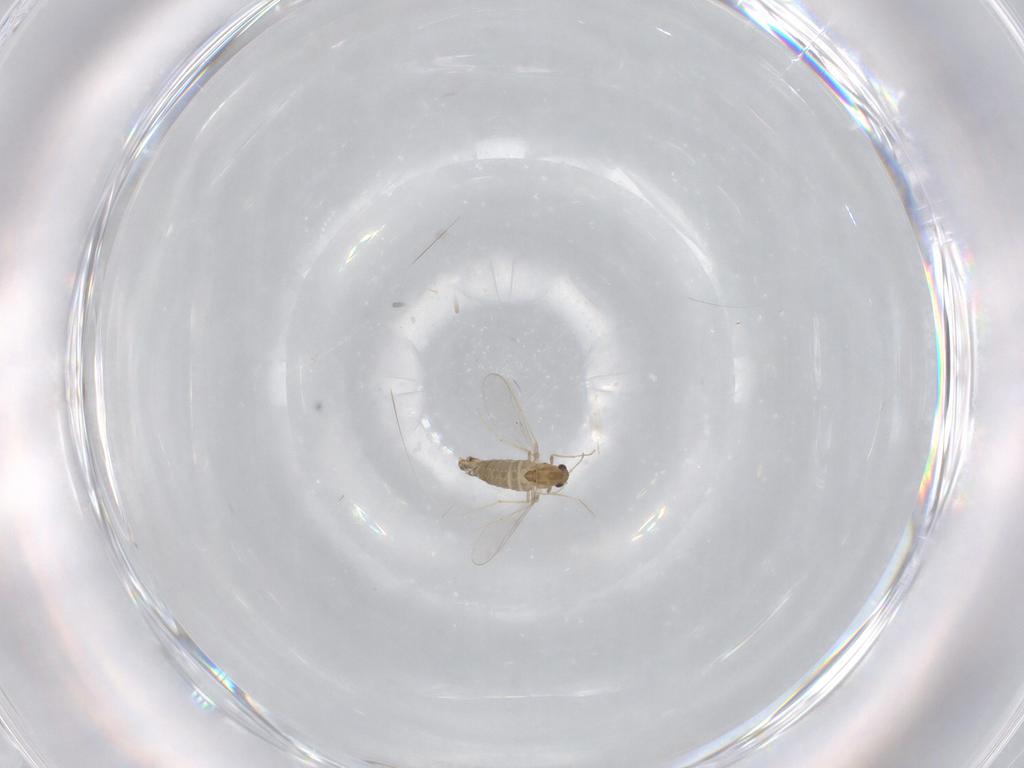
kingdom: Animalia
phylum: Arthropoda
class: Insecta
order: Diptera
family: Chironomidae
